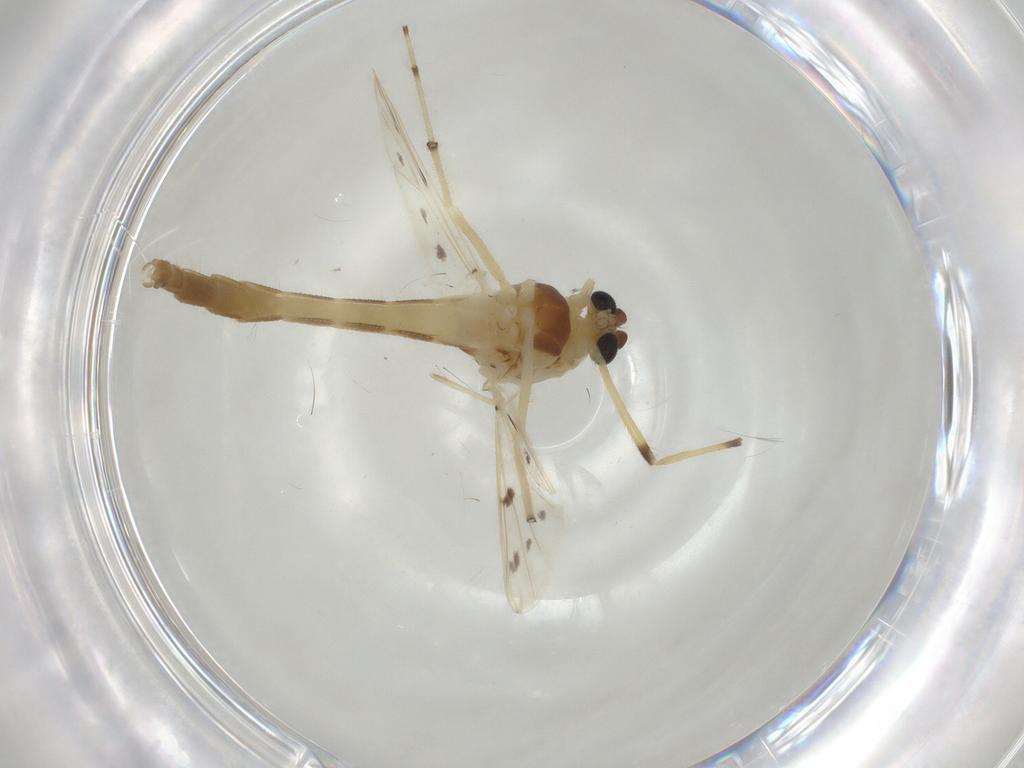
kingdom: Animalia
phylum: Arthropoda
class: Insecta
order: Diptera
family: Chironomidae
